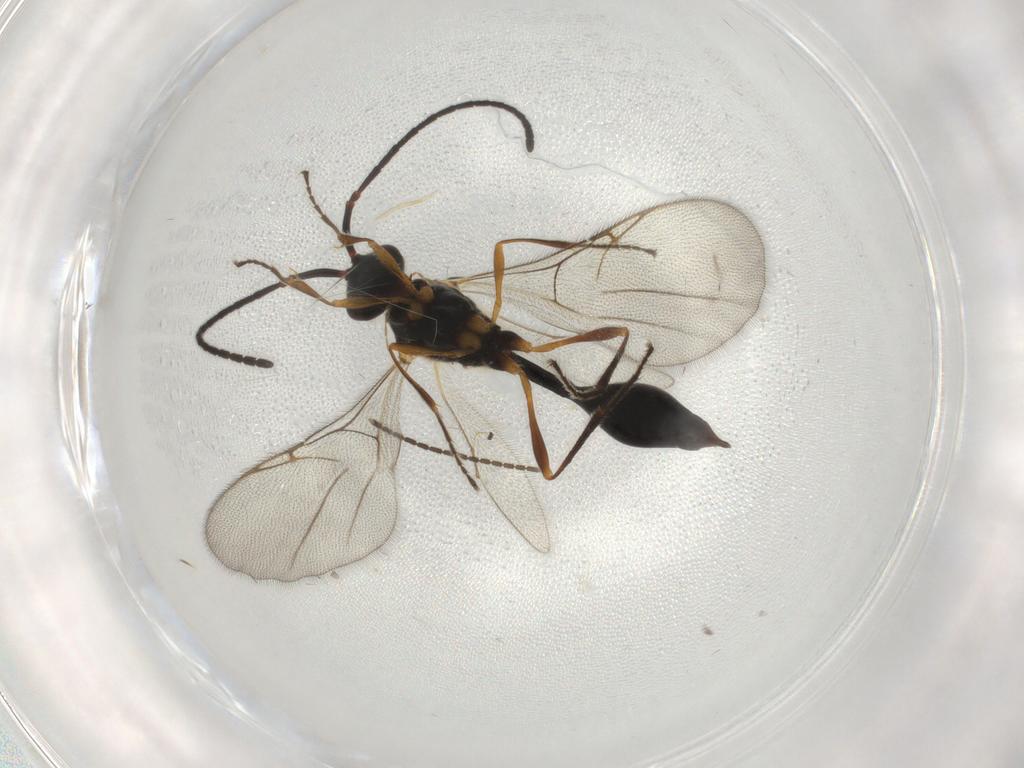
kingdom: Animalia
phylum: Arthropoda
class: Insecta
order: Hymenoptera
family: Diapriidae
